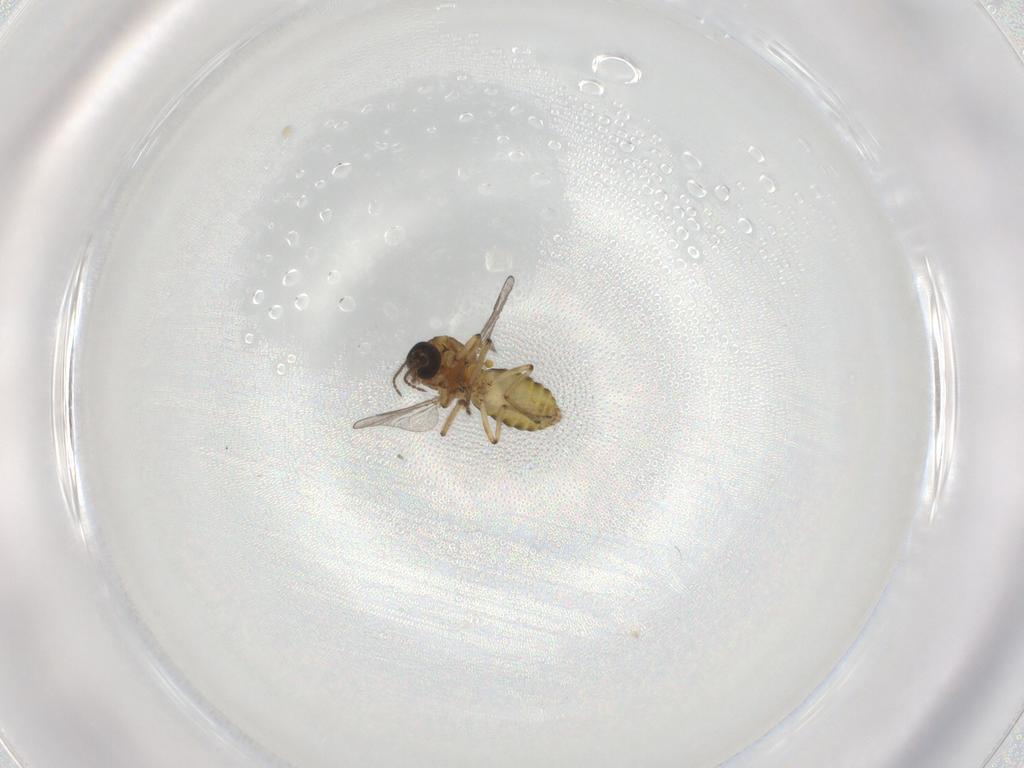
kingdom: Animalia
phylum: Arthropoda
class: Insecta
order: Diptera
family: Ceratopogonidae
